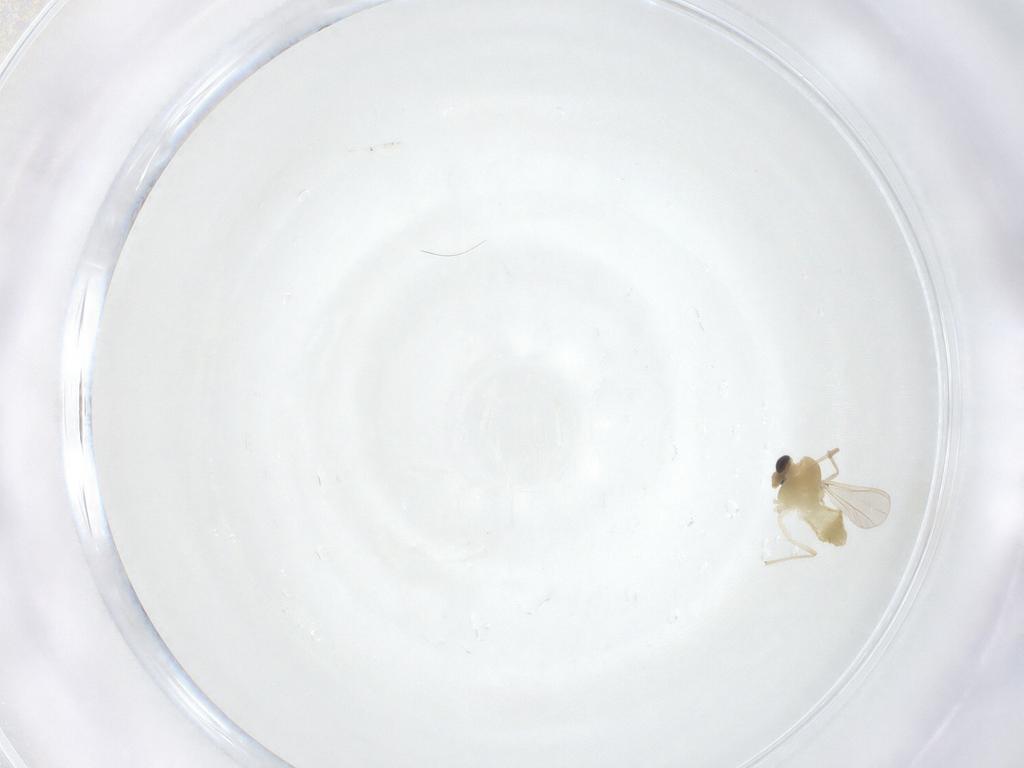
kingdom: Animalia
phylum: Arthropoda
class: Insecta
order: Diptera
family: Chironomidae
